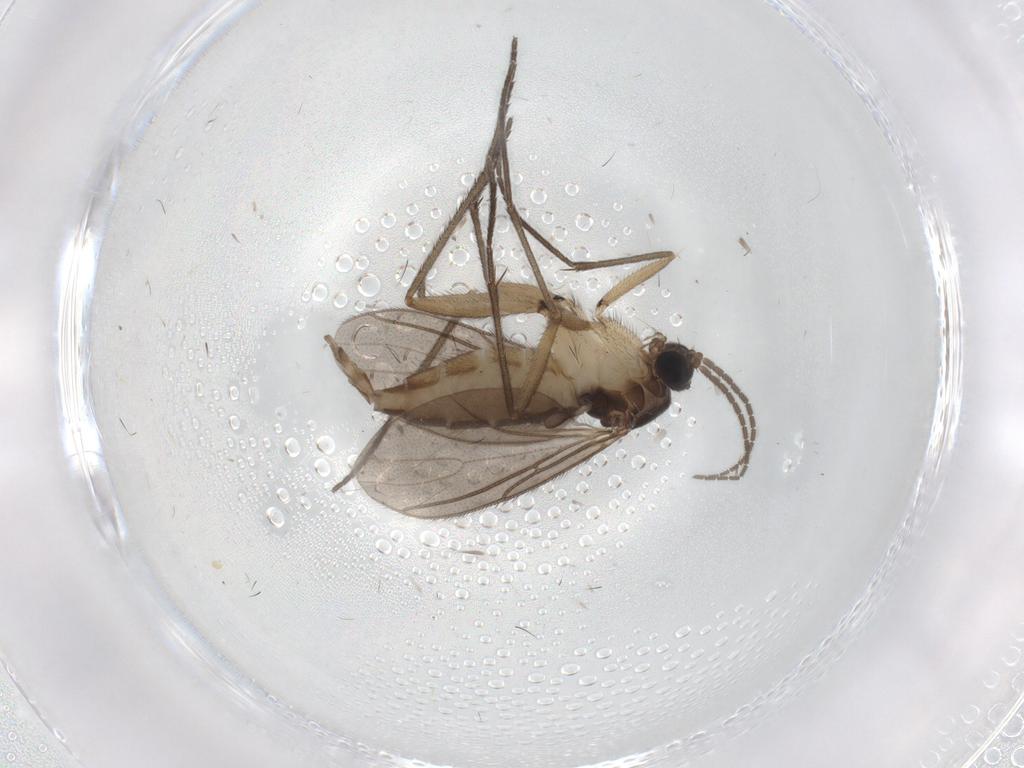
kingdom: Animalia
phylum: Arthropoda
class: Insecta
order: Diptera
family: Sciaridae
